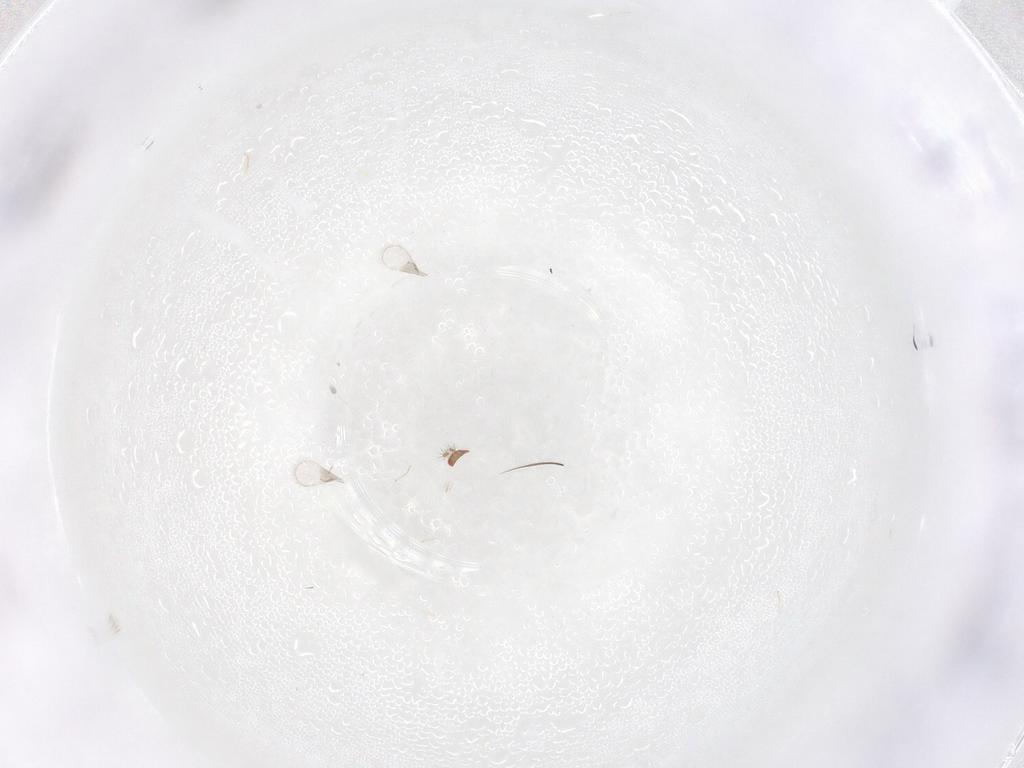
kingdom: Animalia
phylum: Arthropoda
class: Insecta
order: Hymenoptera
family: Trichogrammatidae
